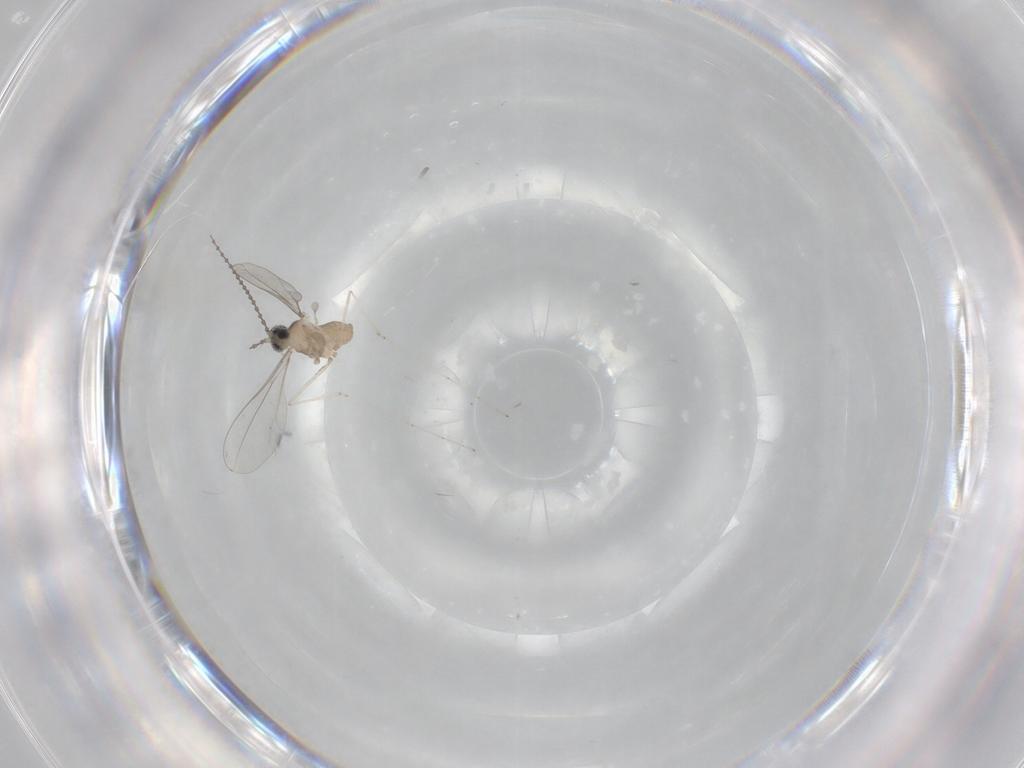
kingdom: Animalia
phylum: Arthropoda
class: Insecta
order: Diptera
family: Cecidomyiidae
